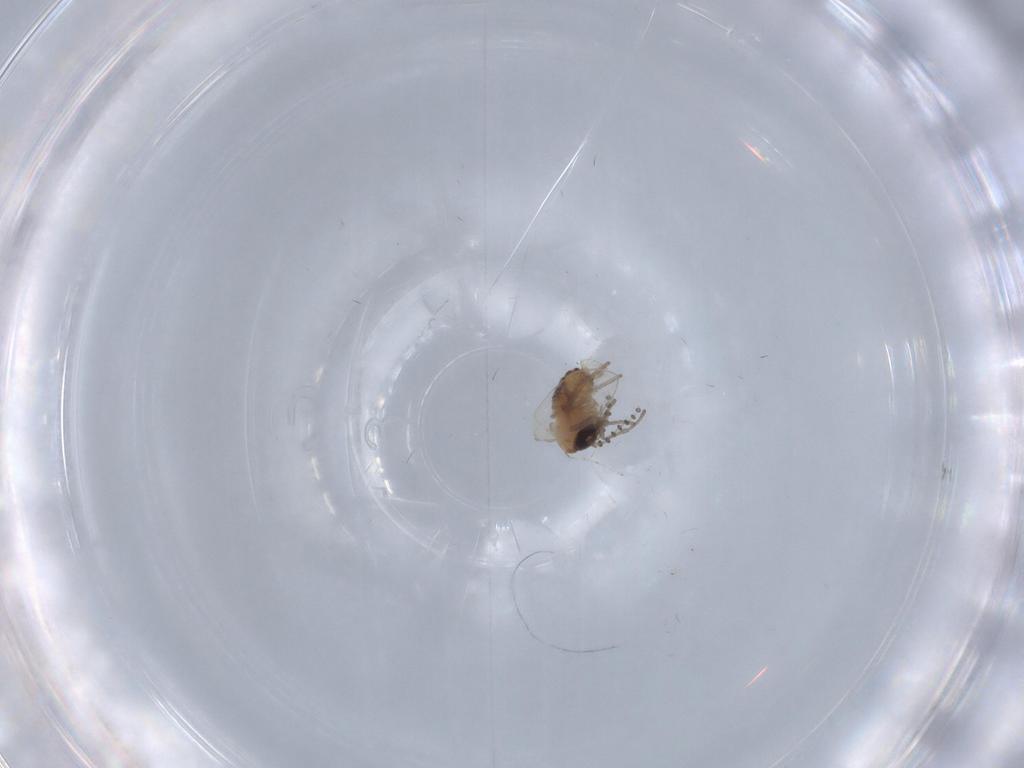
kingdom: Animalia
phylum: Arthropoda
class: Insecta
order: Diptera
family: Psychodidae
